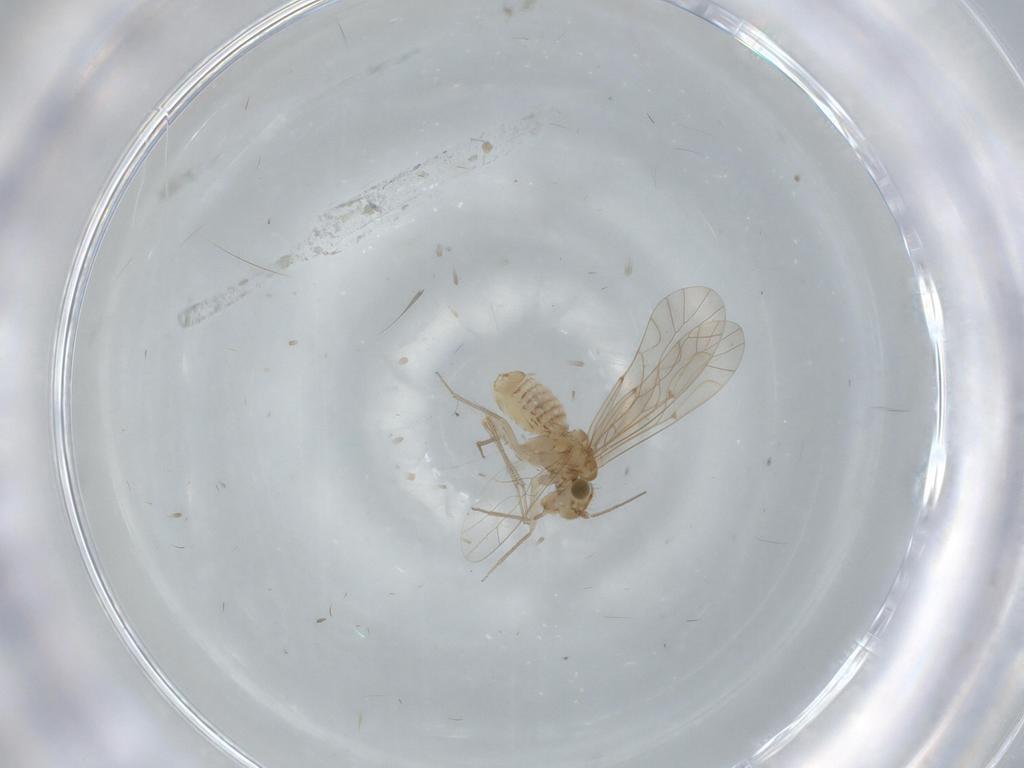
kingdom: Animalia
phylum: Arthropoda
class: Insecta
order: Psocodea
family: Lachesillidae
